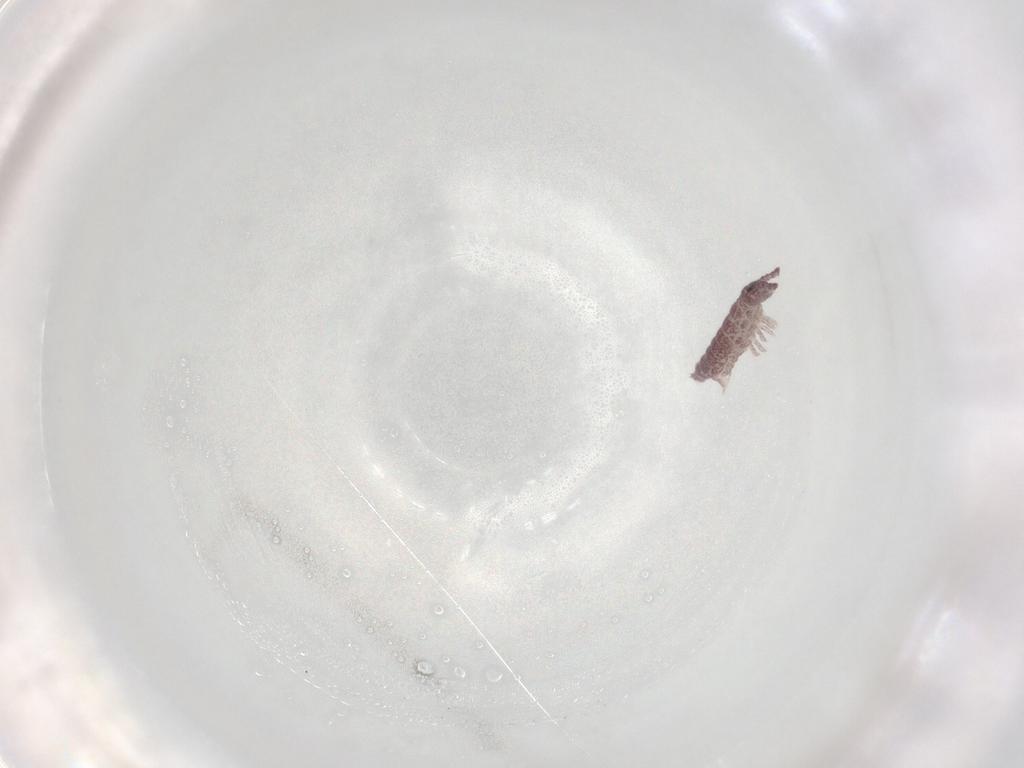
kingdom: Animalia
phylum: Arthropoda
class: Collembola
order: Poduromorpha
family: Hypogastruridae
